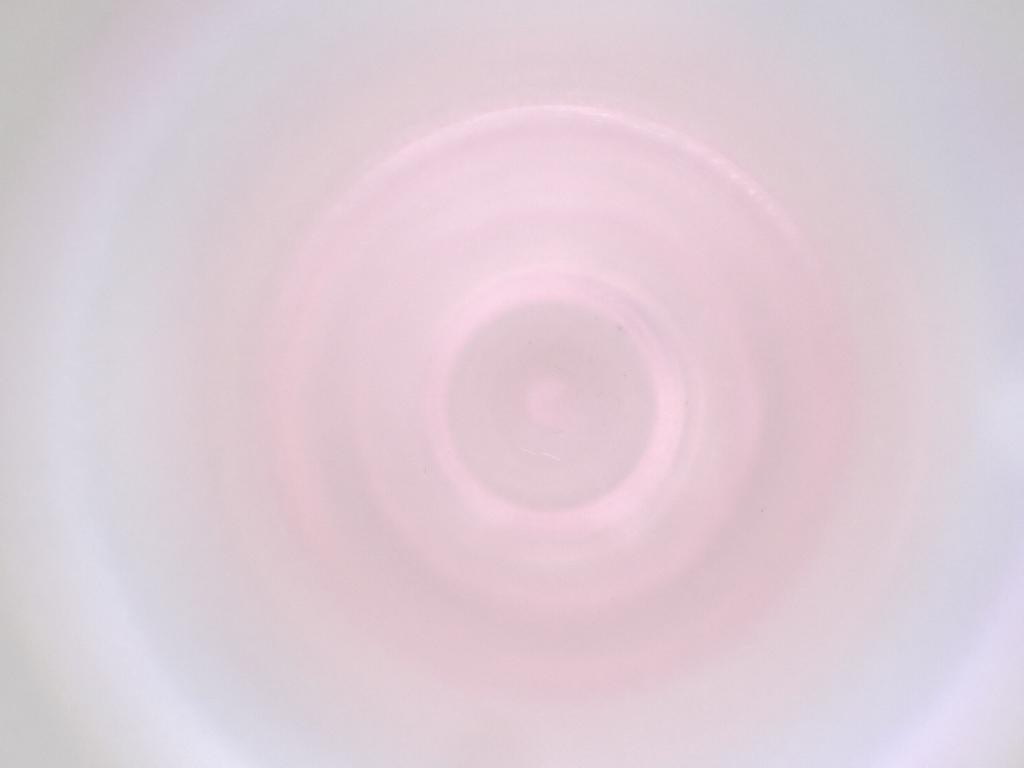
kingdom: Animalia
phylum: Arthropoda
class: Insecta
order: Diptera
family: Cecidomyiidae
